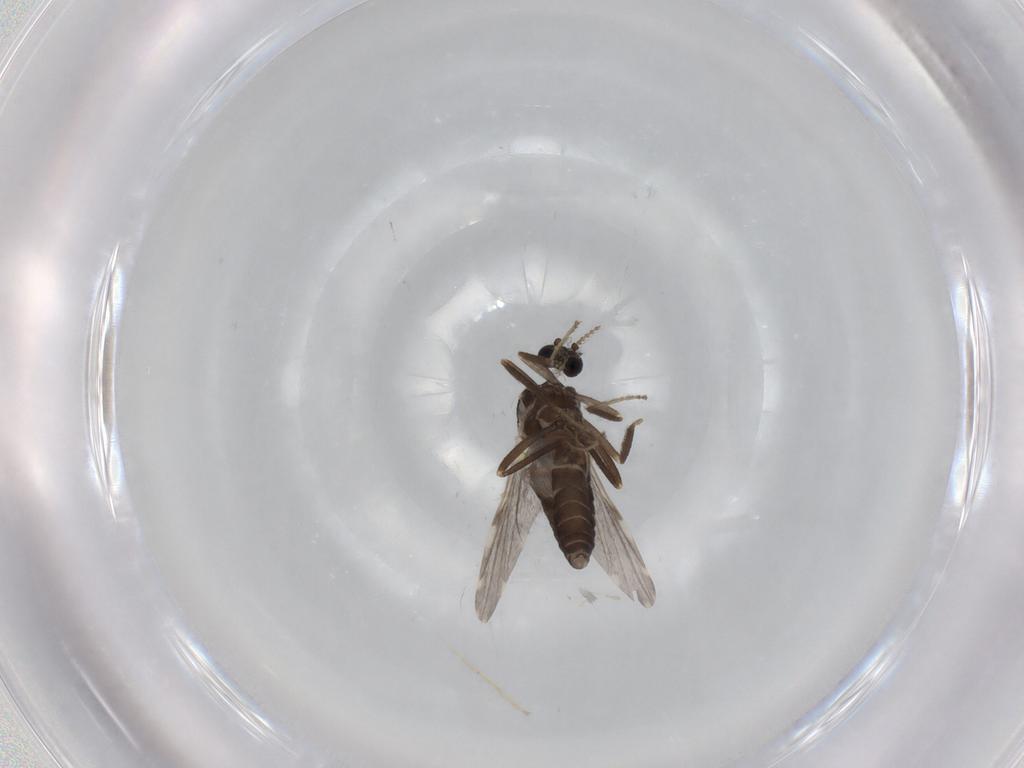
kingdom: Animalia
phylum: Arthropoda
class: Insecta
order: Diptera
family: Ceratopogonidae
